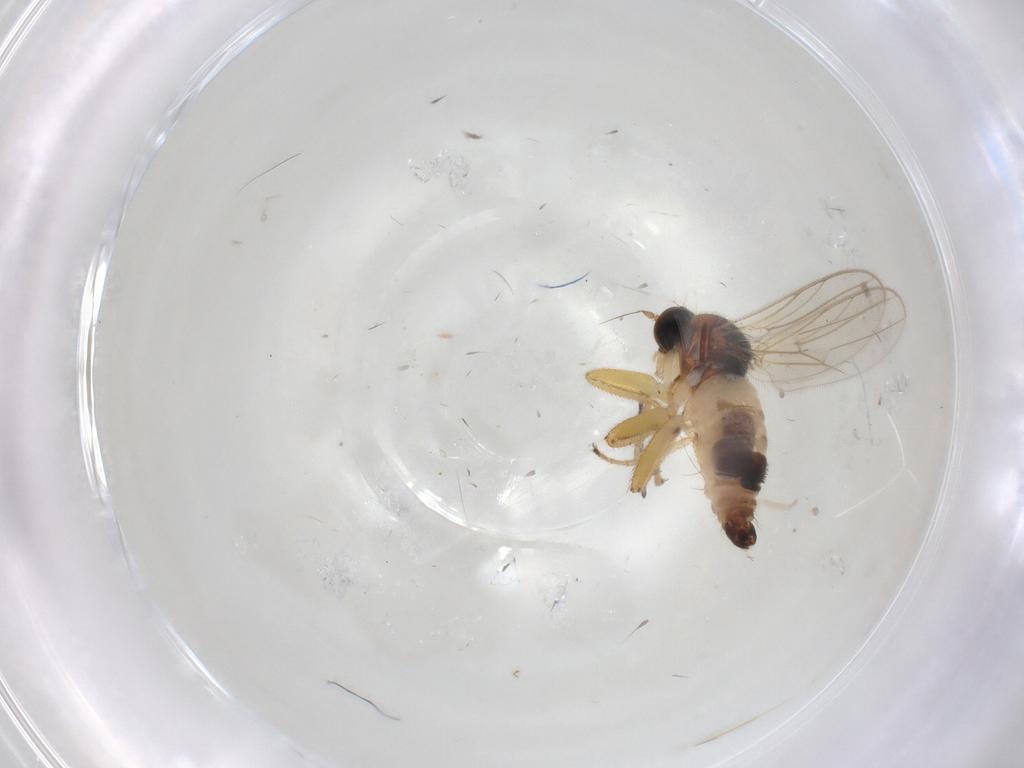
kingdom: Animalia
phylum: Arthropoda
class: Insecta
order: Diptera
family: Hybotidae
